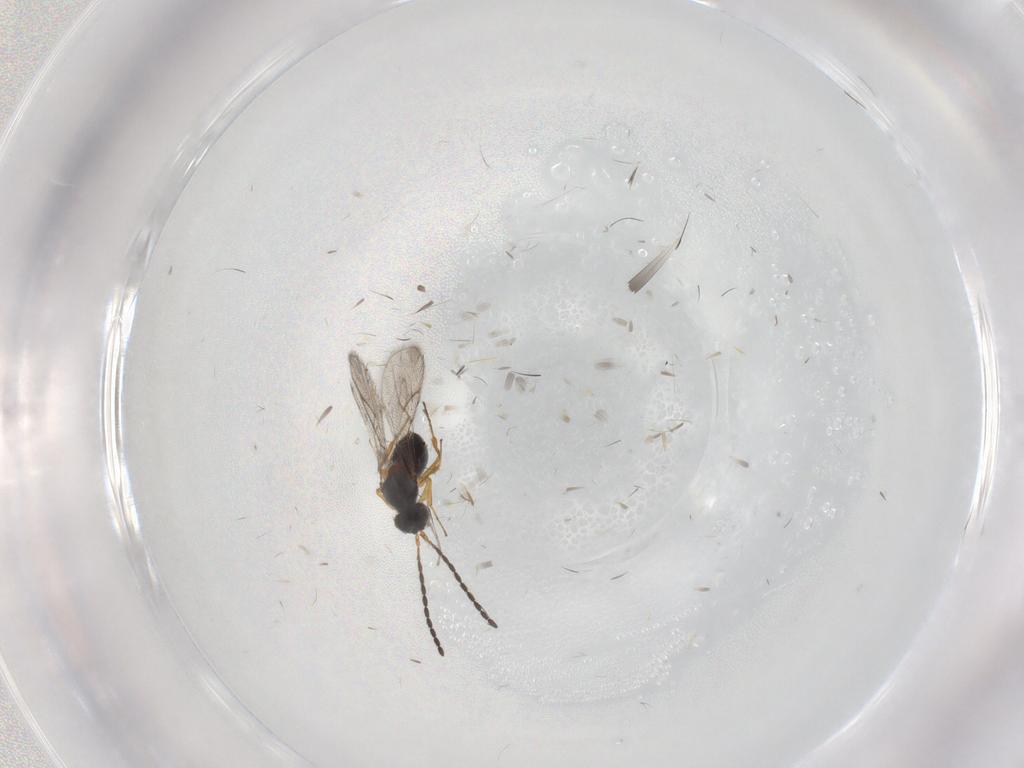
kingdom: Animalia
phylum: Arthropoda
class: Insecta
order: Hymenoptera
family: Figitidae
